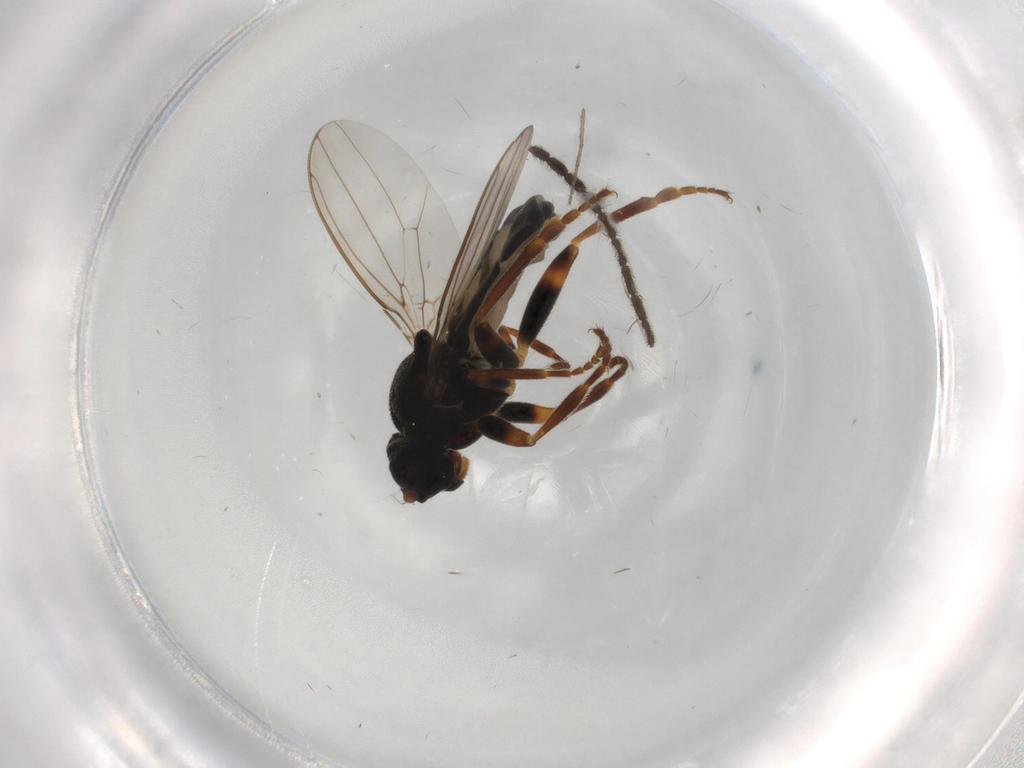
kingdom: Animalia
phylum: Arthropoda
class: Insecta
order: Diptera
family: Sphaeroceridae
